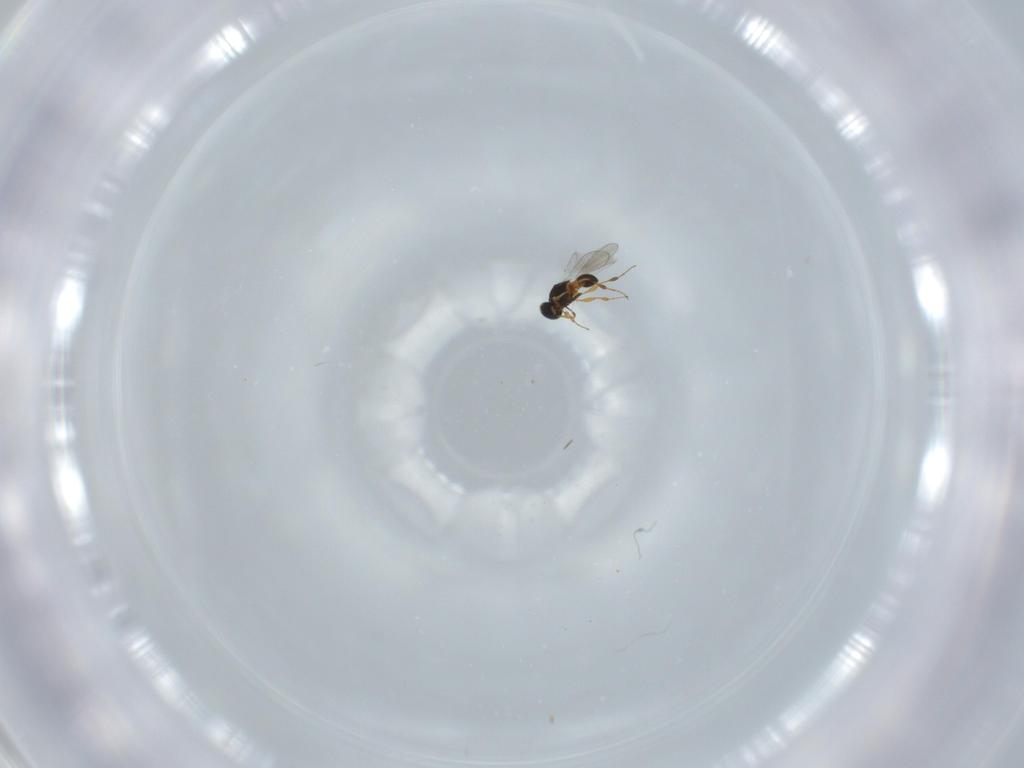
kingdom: Animalia
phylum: Arthropoda
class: Insecta
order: Hymenoptera
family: Platygastridae
